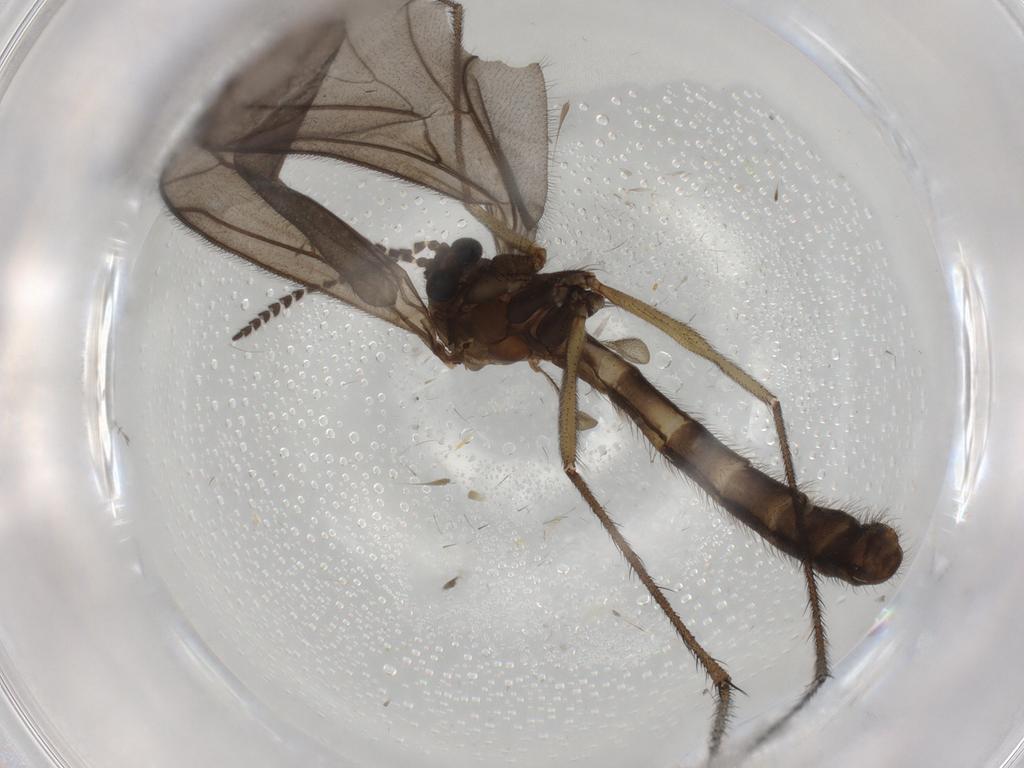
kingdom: Animalia
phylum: Arthropoda
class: Insecta
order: Diptera
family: Ditomyiidae
